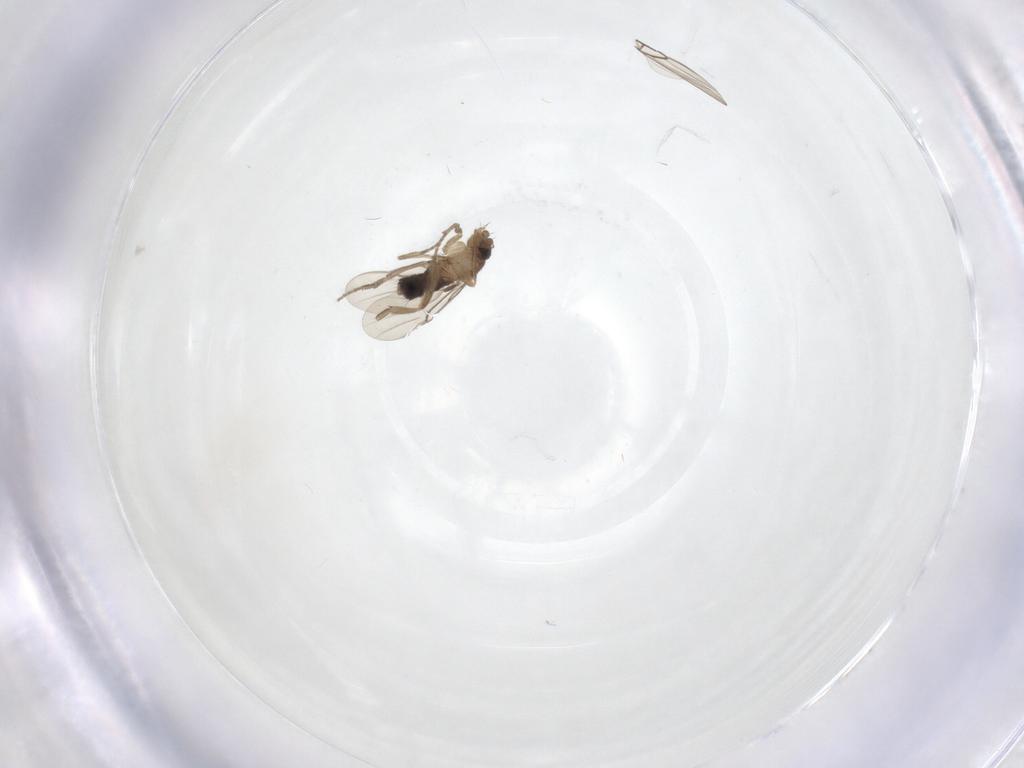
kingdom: Animalia
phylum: Arthropoda
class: Insecta
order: Diptera
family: Phoridae
